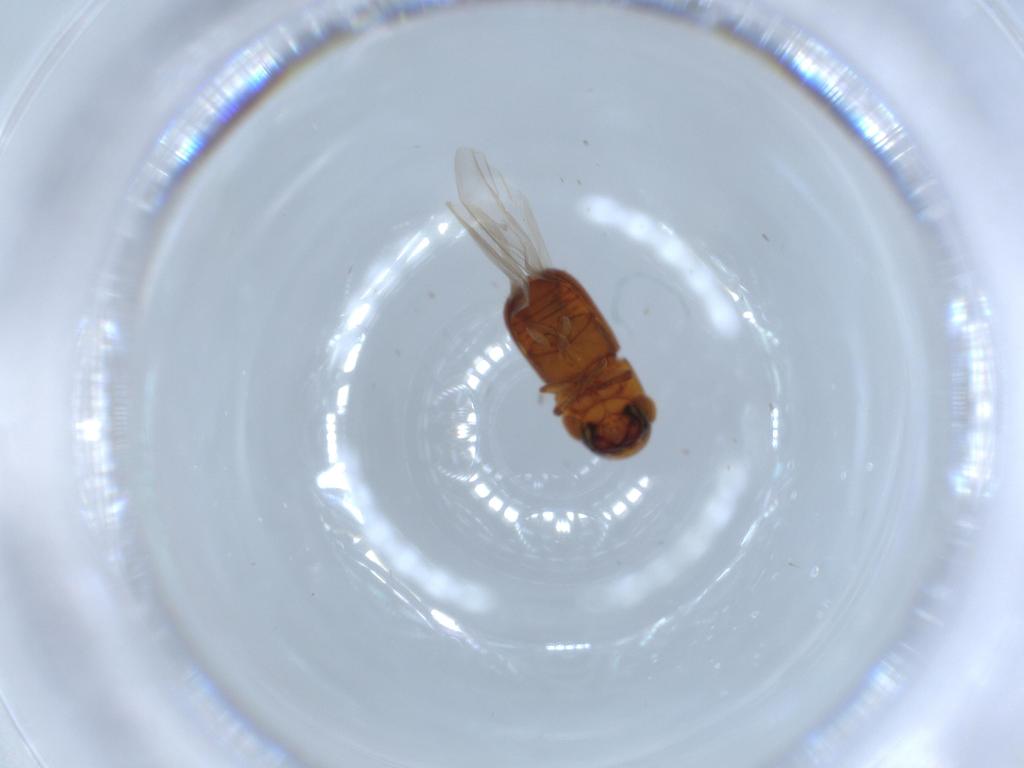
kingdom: Animalia
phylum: Arthropoda
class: Insecta
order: Coleoptera
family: Curculionidae
